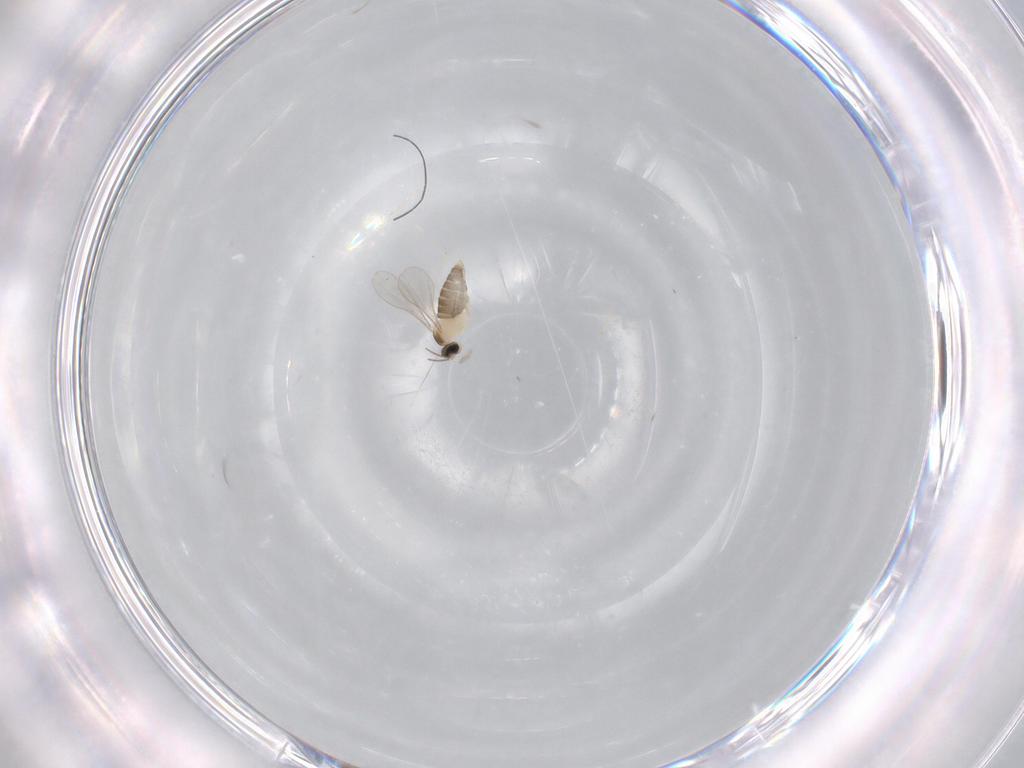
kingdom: Animalia
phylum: Arthropoda
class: Insecta
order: Diptera
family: Cecidomyiidae
